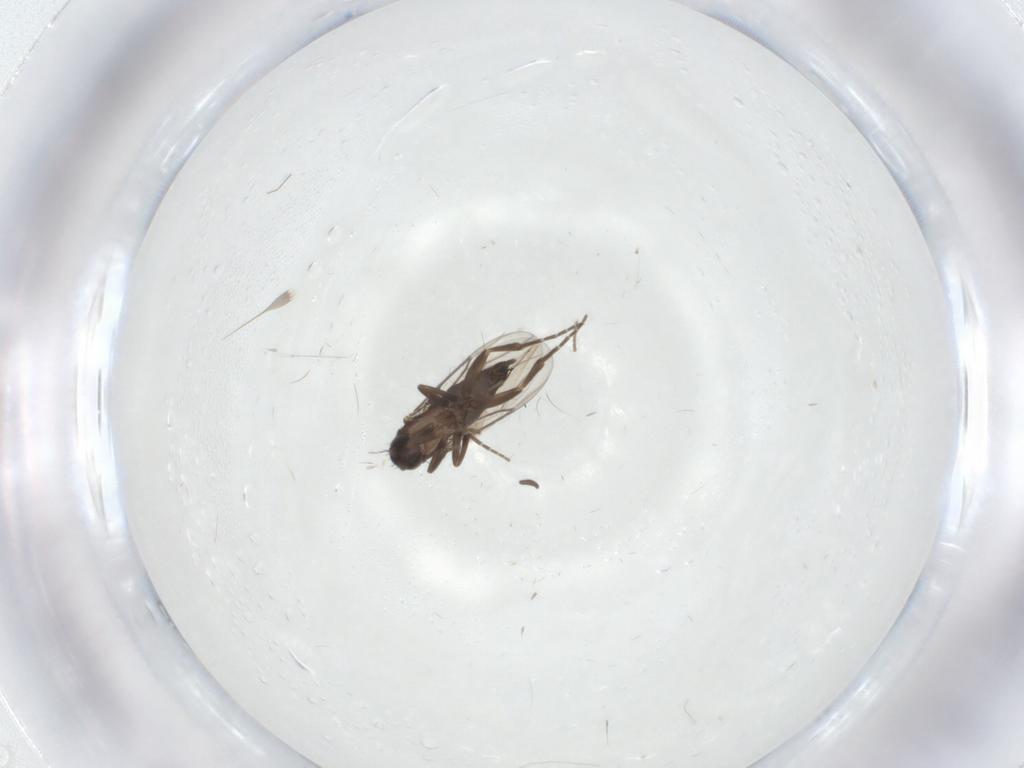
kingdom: Animalia
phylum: Arthropoda
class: Insecta
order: Diptera
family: Limoniidae
